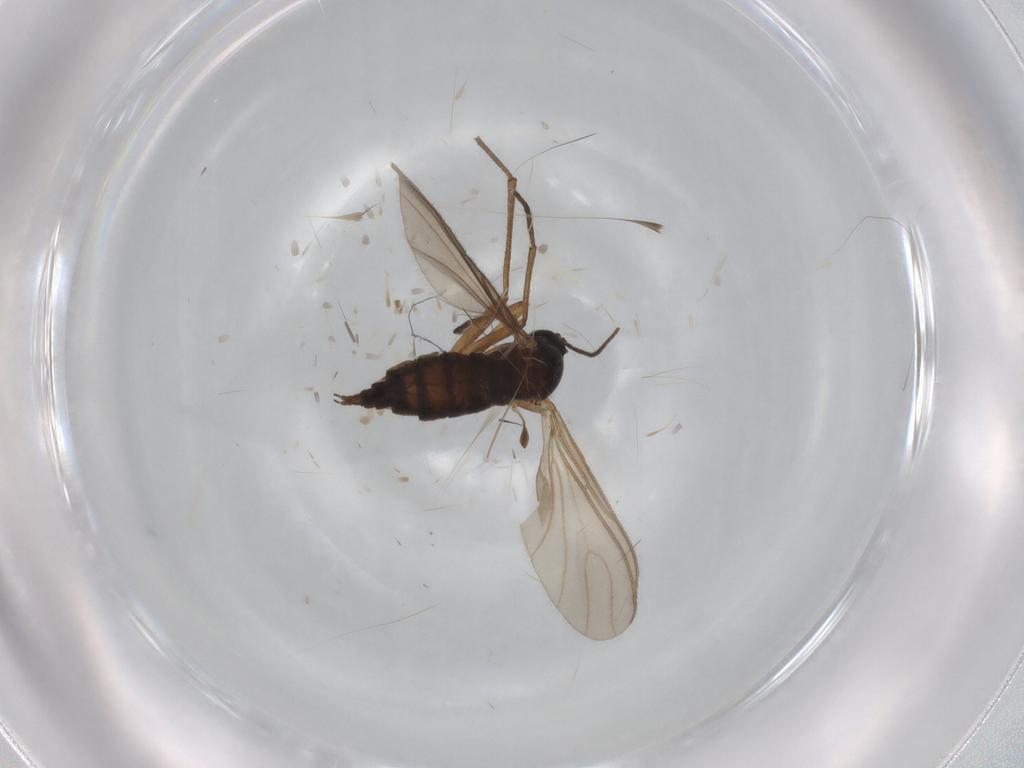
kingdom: Animalia
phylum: Arthropoda
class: Insecta
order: Diptera
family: Sciaridae
